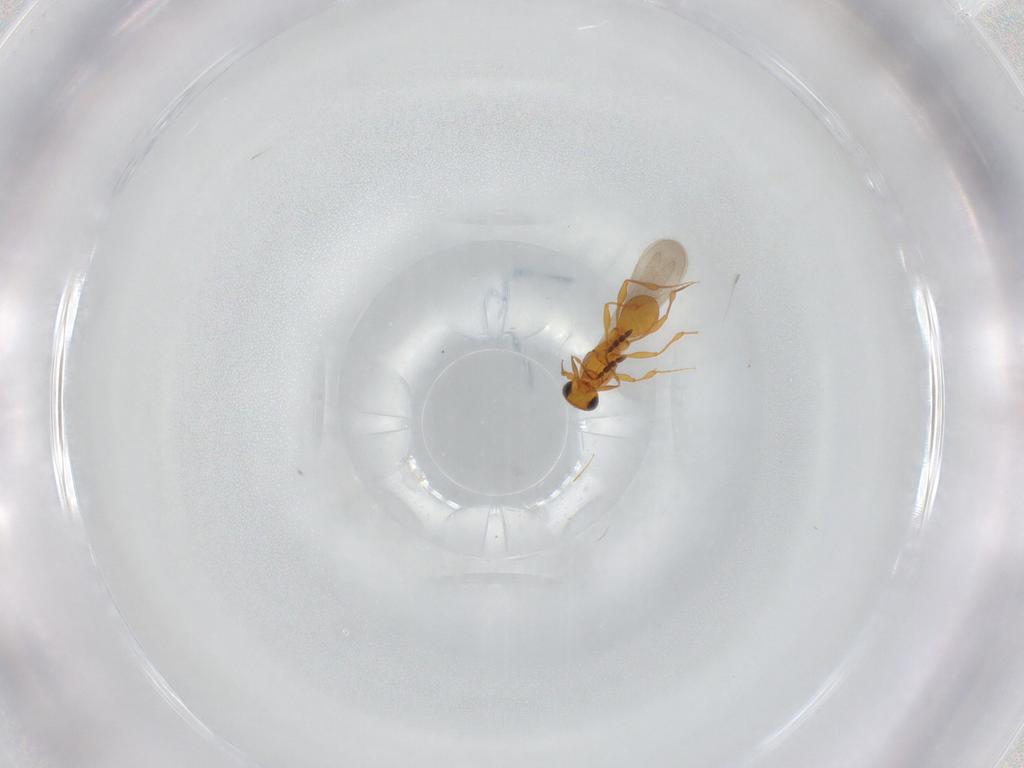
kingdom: Animalia
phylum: Arthropoda
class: Insecta
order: Hymenoptera
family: Platygastridae
